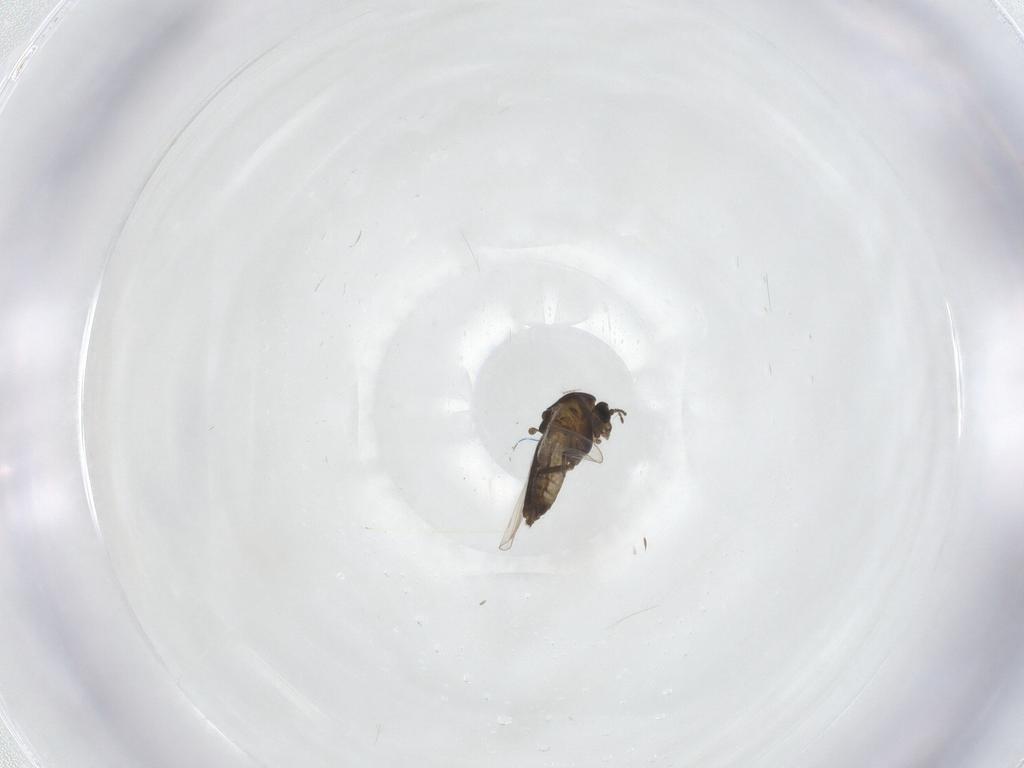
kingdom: Animalia
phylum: Arthropoda
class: Insecta
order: Diptera
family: Chironomidae
